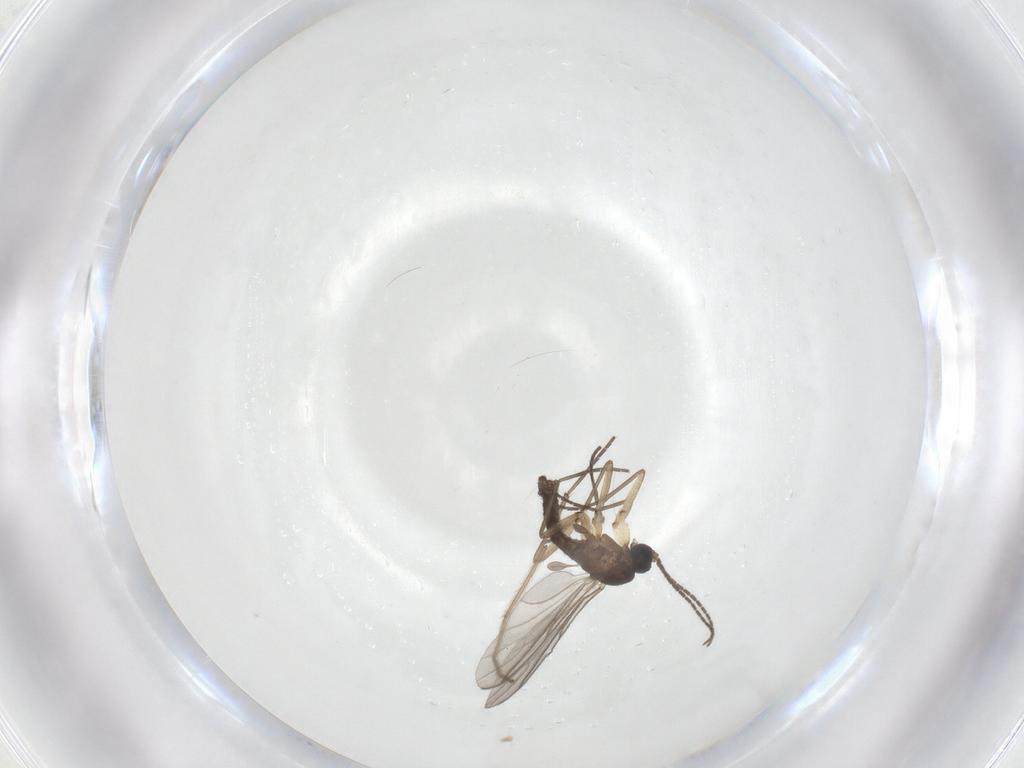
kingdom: Animalia
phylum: Arthropoda
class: Insecta
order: Diptera
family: Sciaridae
